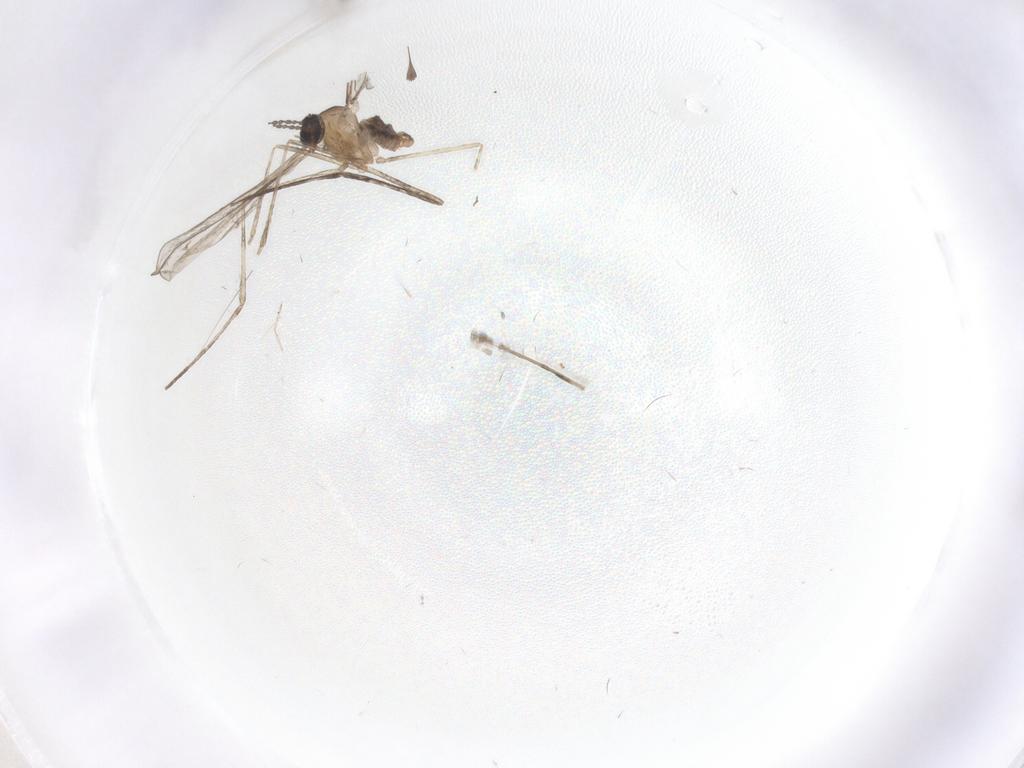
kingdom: Animalia
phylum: Arthropoda
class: Insecta
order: Diptera
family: Cecidomyiidae
